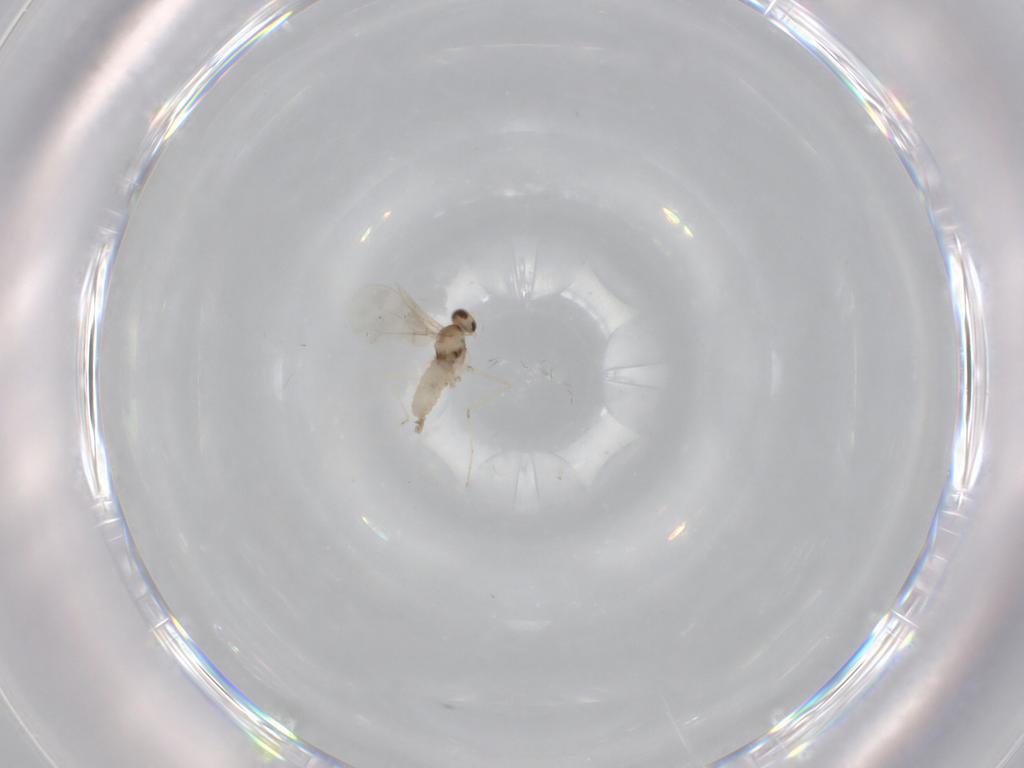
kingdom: Animalia
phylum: Arthropoda
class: Insecta
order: Diptera
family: Cecidomyiidae
